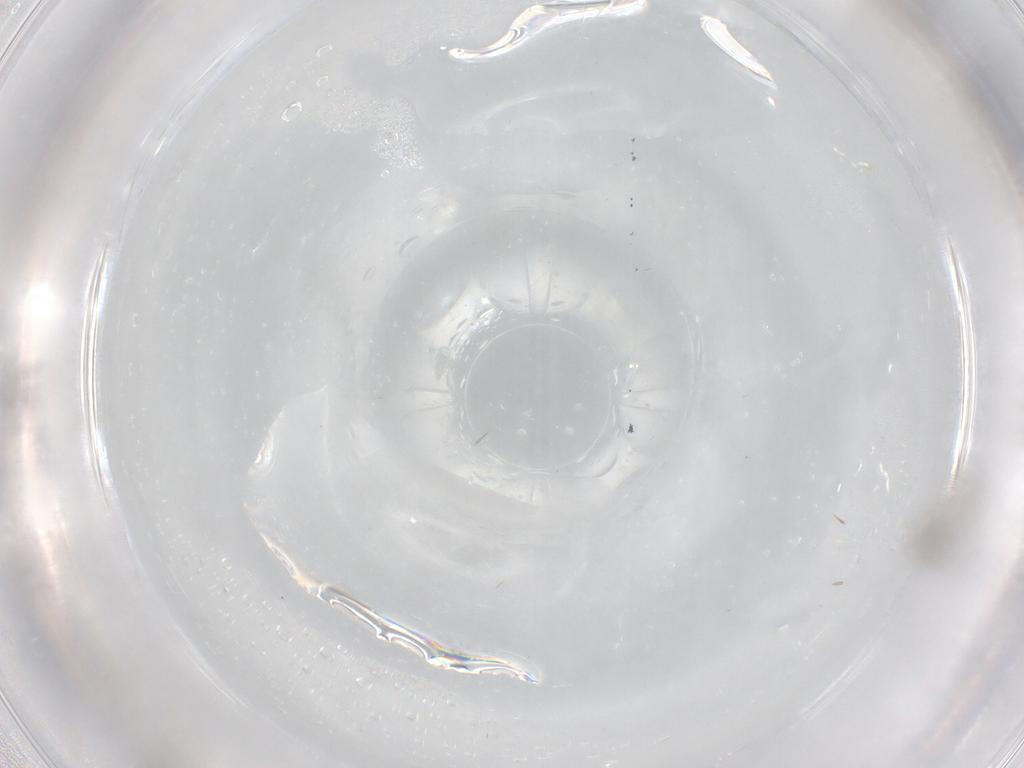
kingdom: Animalia
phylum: Arthropoda
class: Insecta
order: Diptera
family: Cecidomyiidae
